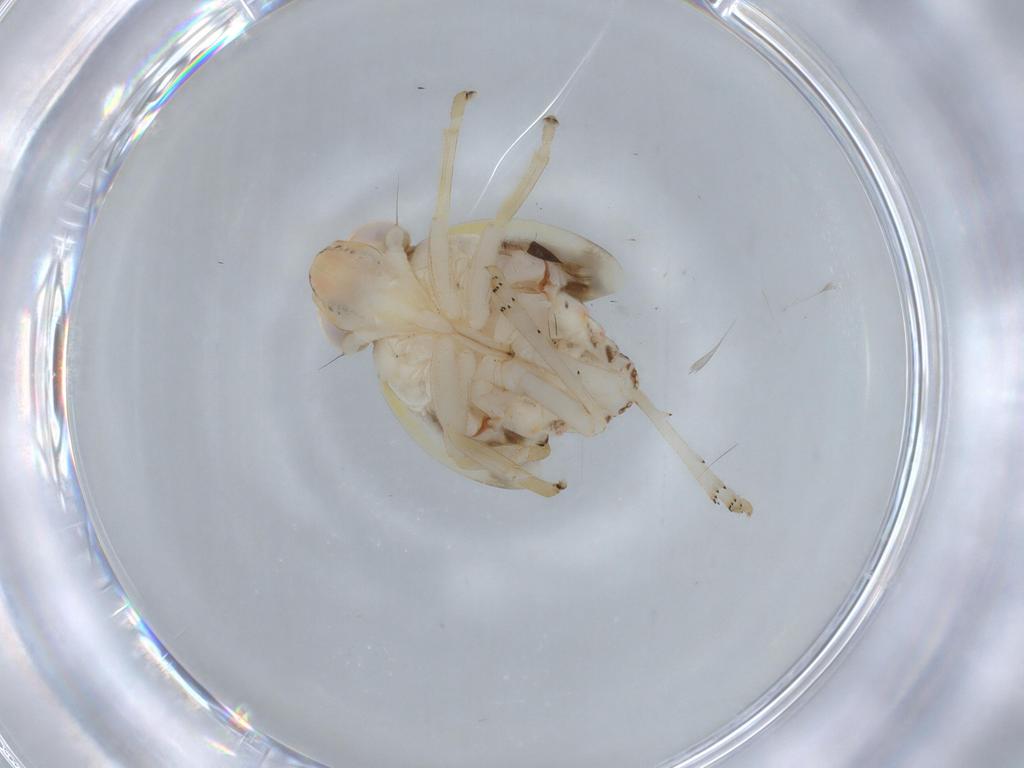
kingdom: Animalia
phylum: Arthropoda
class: Insecta
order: Hemiptera
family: Nogodinidae
